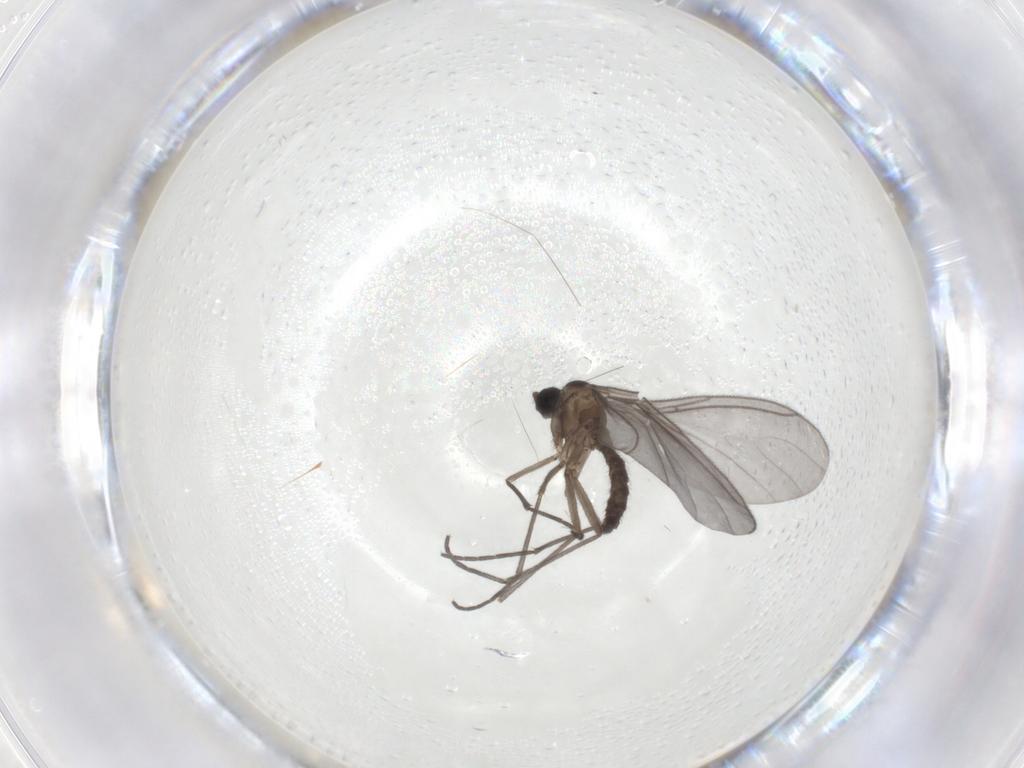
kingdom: Animalia
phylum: Arthropoda
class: Insecta
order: Diptera
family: Sciaridae
